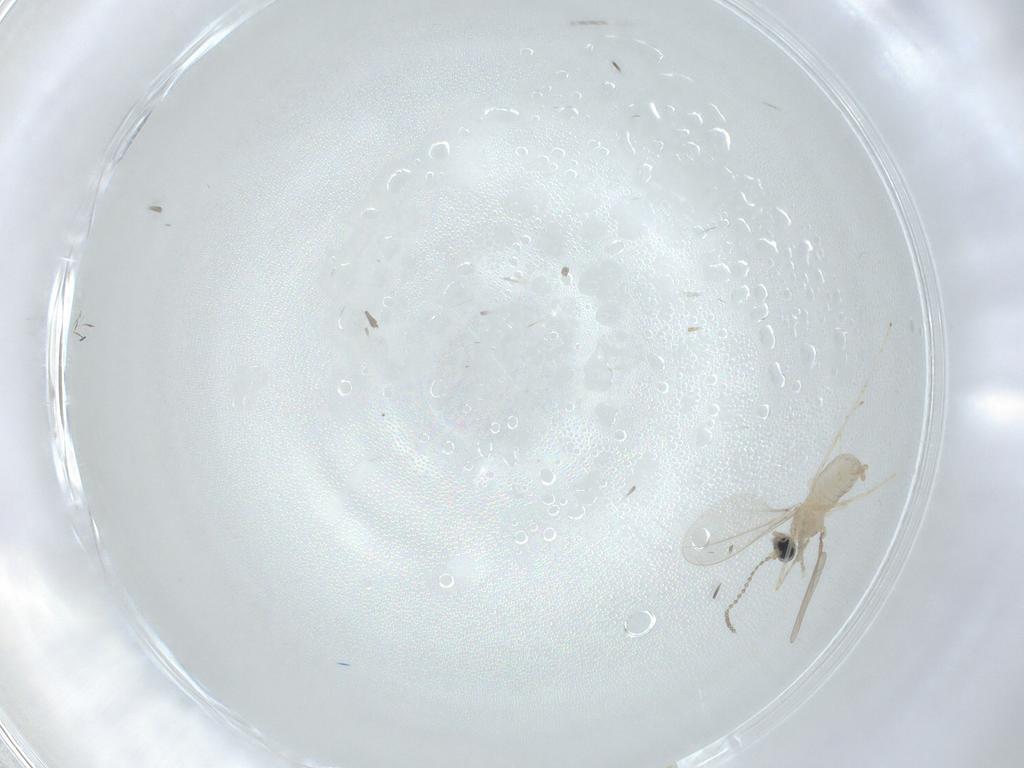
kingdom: Animalia
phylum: Arthropoda
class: Insecta
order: Diptera
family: Cecidomyiidae
